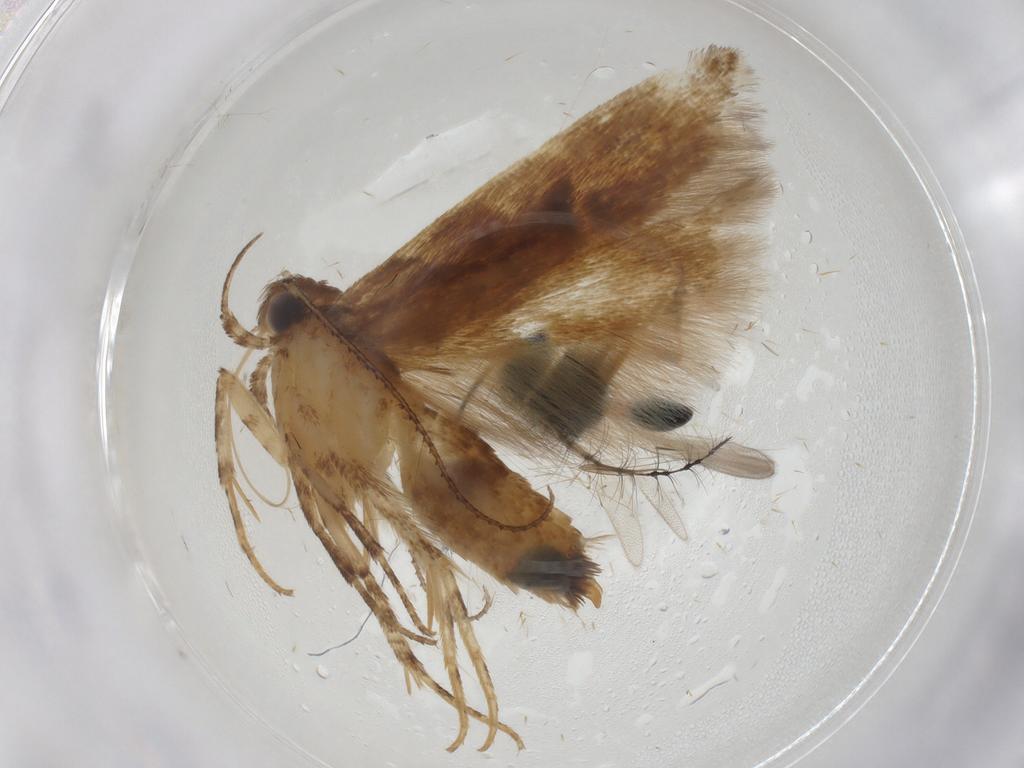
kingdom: Animalia
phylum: Arthropoda
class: Insecta
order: Lepidoptera
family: Gelechiidae
